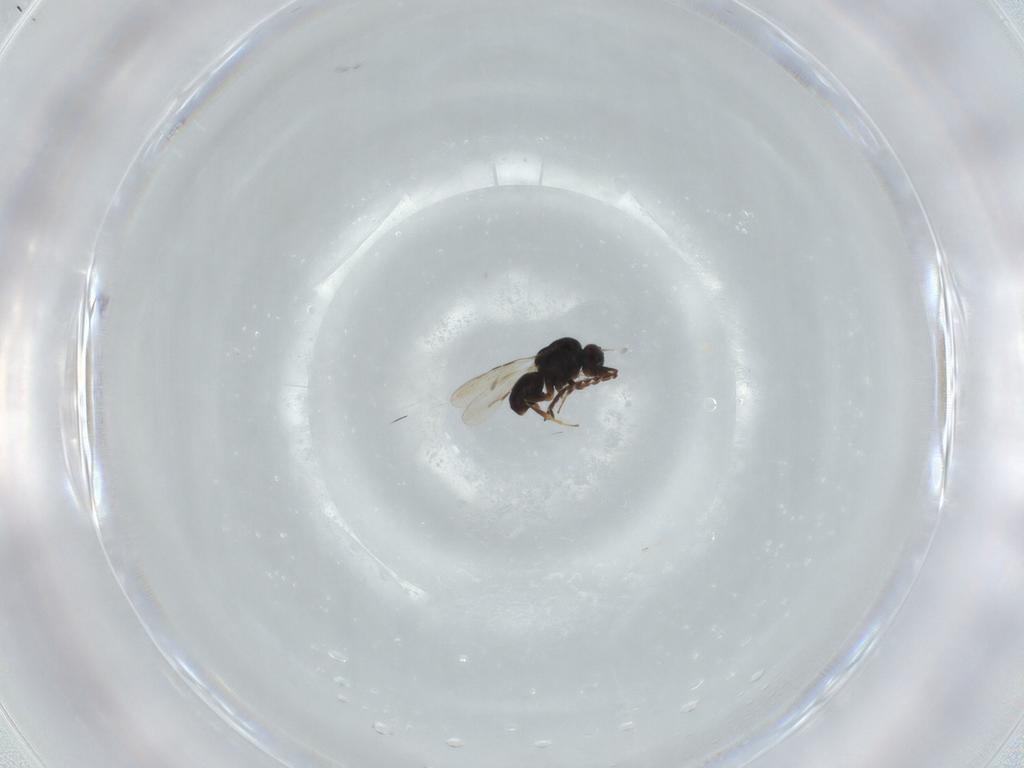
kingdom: Animalia
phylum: Arthropoda
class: Insecta
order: Hymenoptera
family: Ceraphronidae
